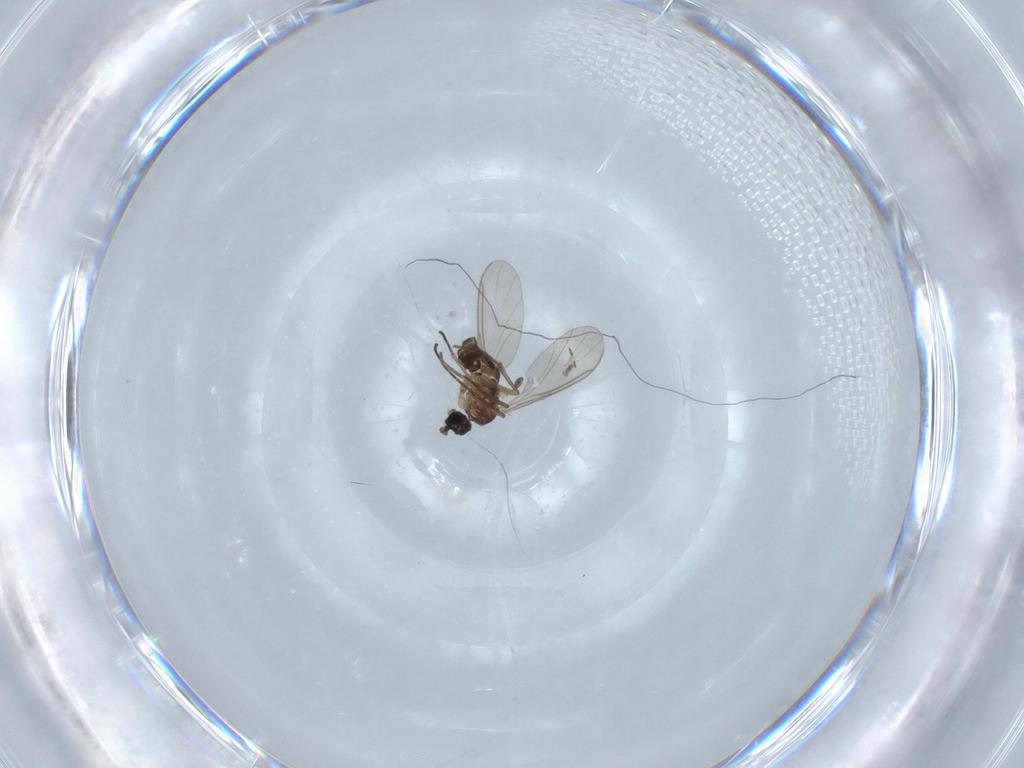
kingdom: Animalia
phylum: Arthropoda
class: Insecta
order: Diptera
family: Sciaridae
